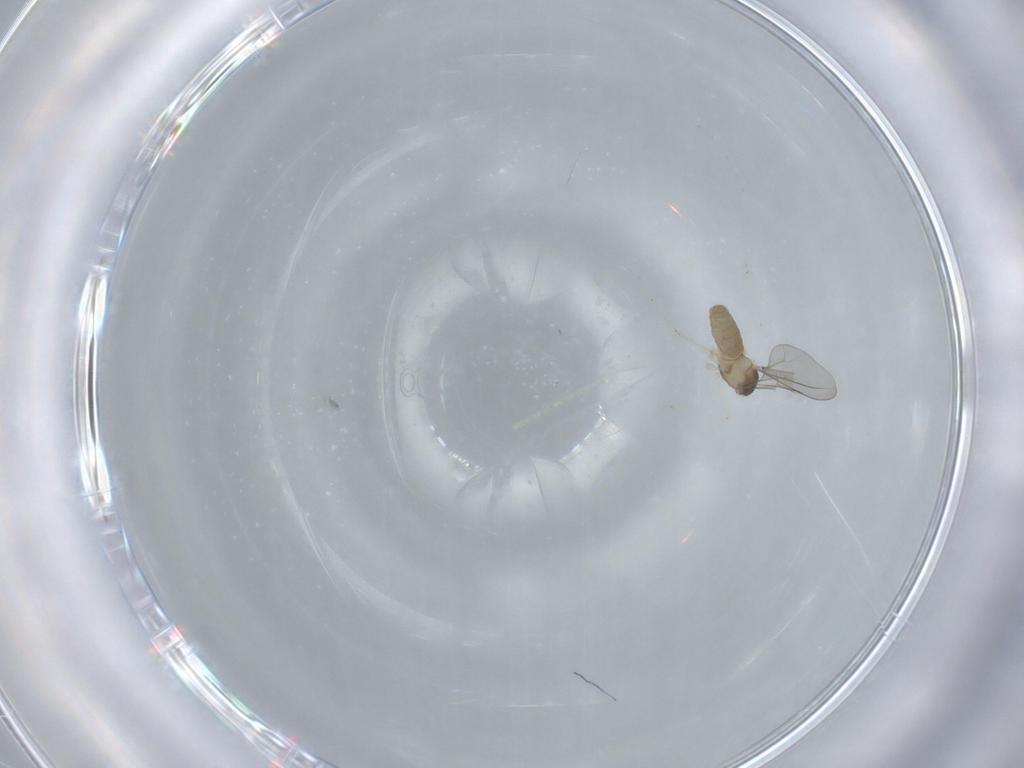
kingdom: Animalia
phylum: Arthropoda
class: Insecta
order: Diptera
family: Cecidomyiidae
